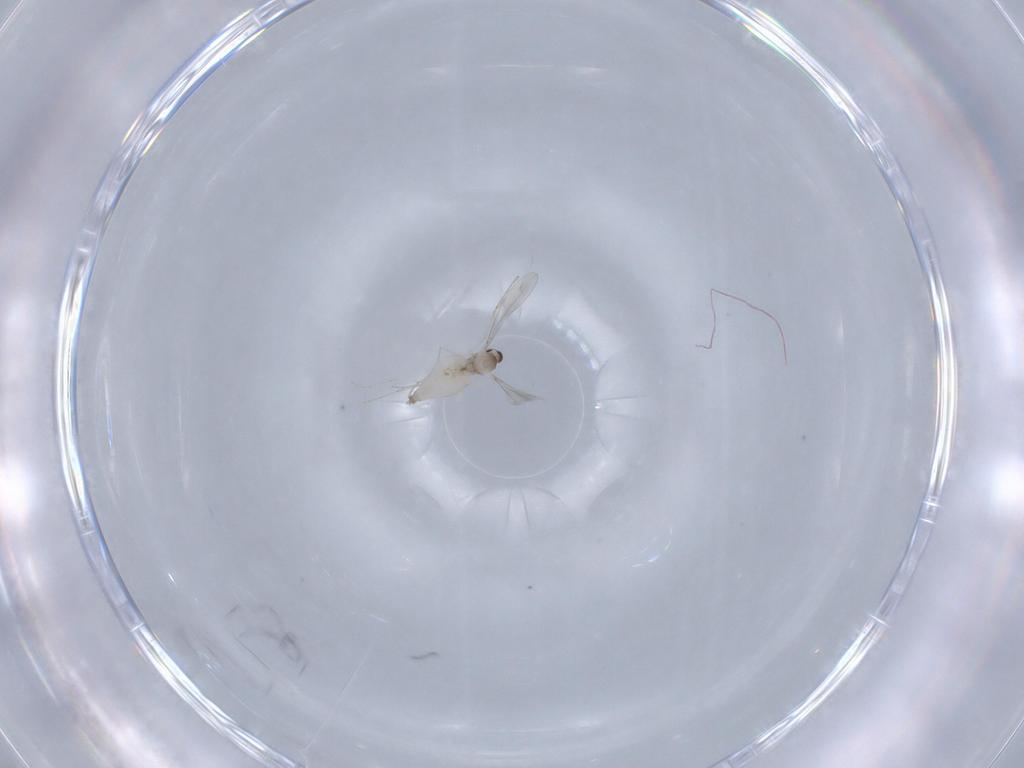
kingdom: Animalia
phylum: Arthropoda
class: Insecta
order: Diptera
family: Cecidomyiidae
